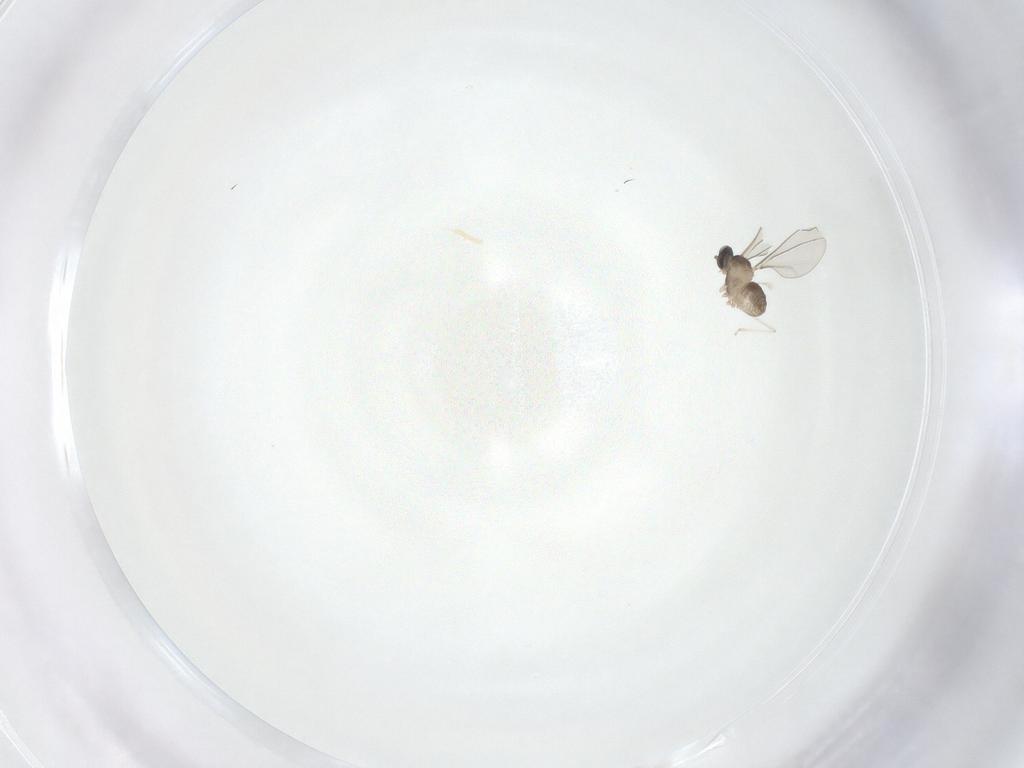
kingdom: Animalia
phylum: Arthropoda
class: Insecta
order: Diptera
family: Cecidomyiidae
